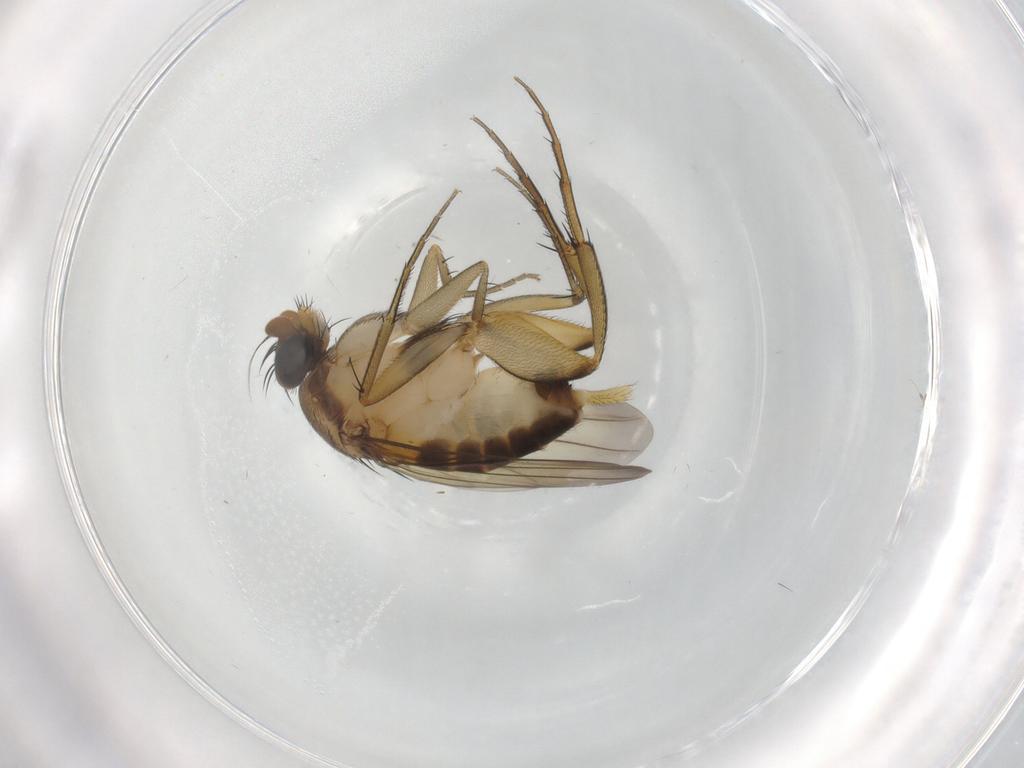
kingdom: Animalia
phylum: Arthropoda
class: Insecta
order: Diptera
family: Phoridae
